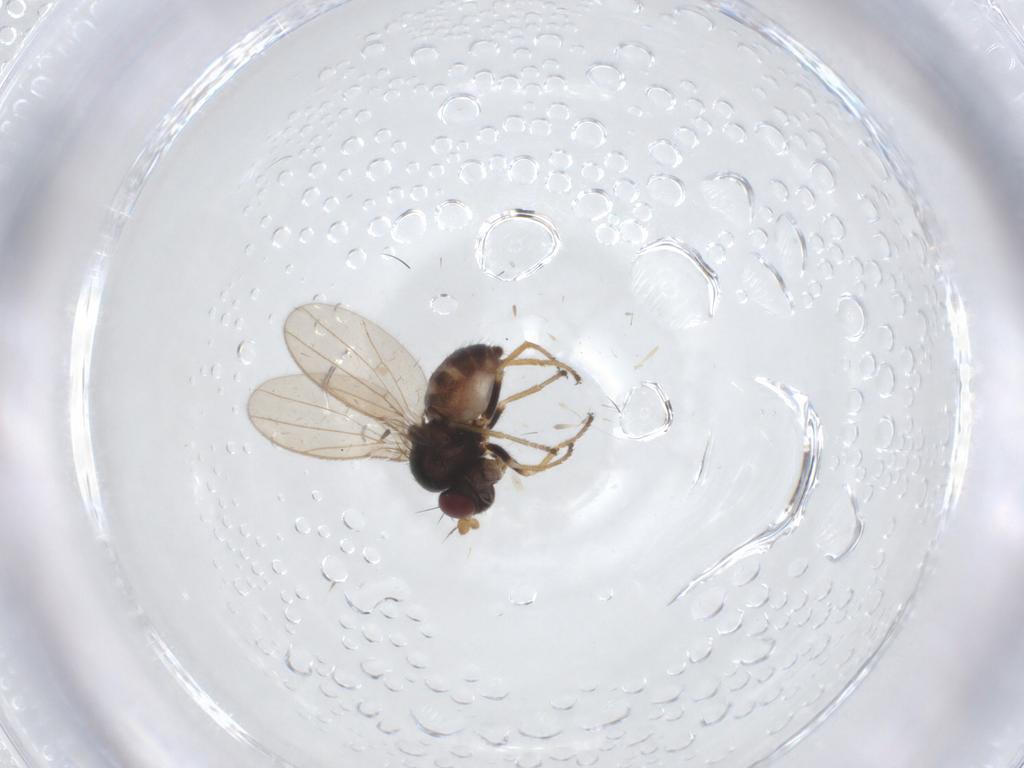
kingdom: Animalia
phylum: Arthropoda
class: Insecta
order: Diptera
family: Ephydridae
